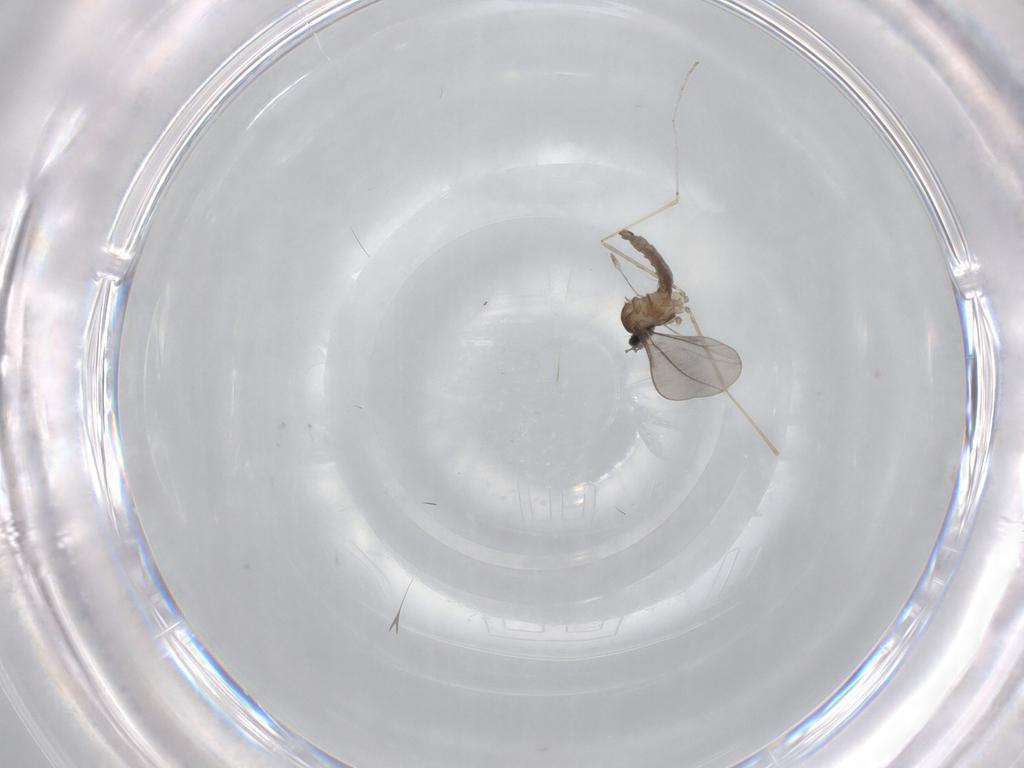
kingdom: Animalia
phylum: Arthropoda
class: Insecta
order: Diptera
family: Cecidomyiidae
